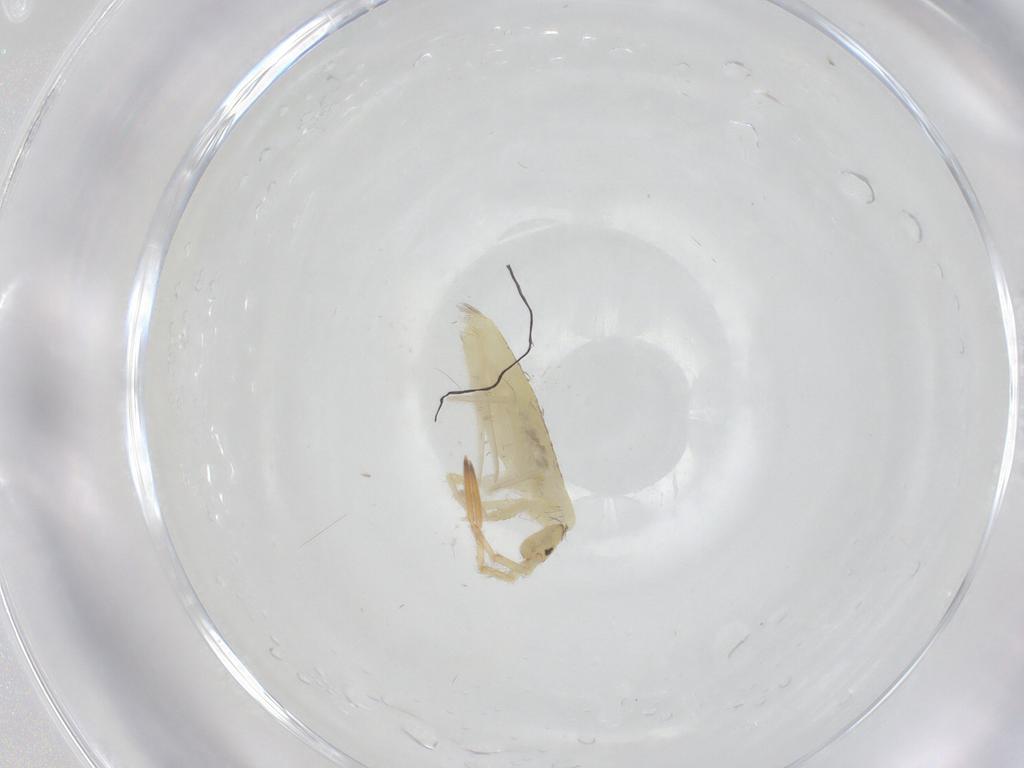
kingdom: Animalia
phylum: Arthropoda
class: Collembola
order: Entomobryomorpha
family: Entomobryidae
